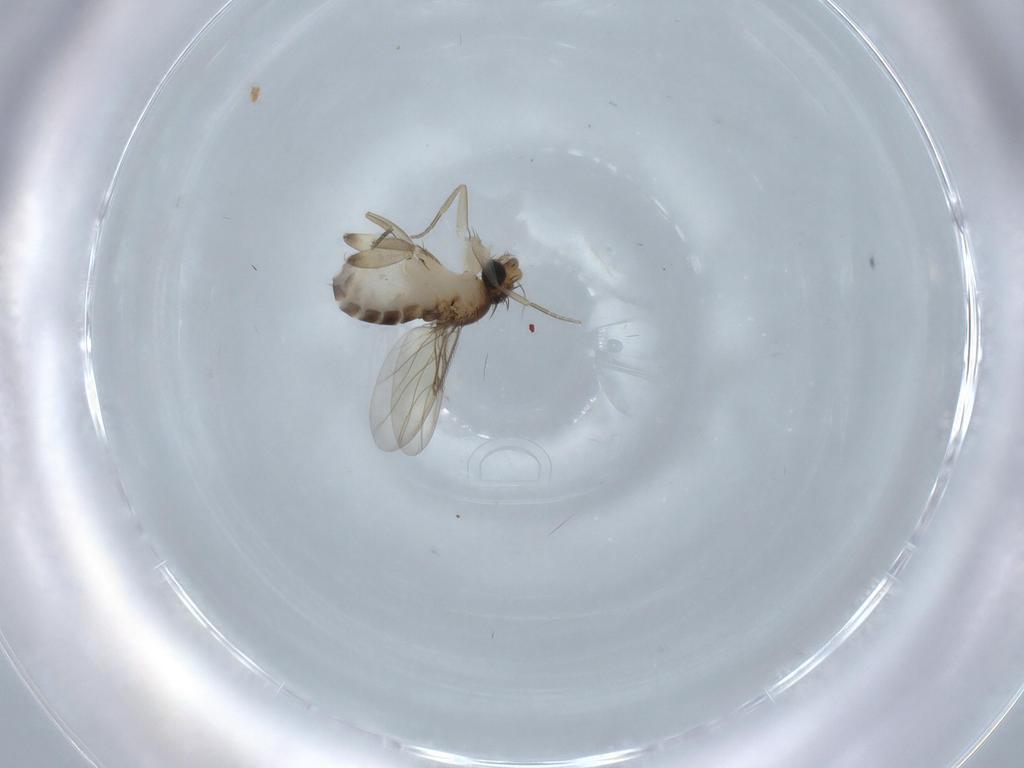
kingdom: Animalia
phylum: Arthropoda
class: Insecta
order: Diptera
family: Phoridae
